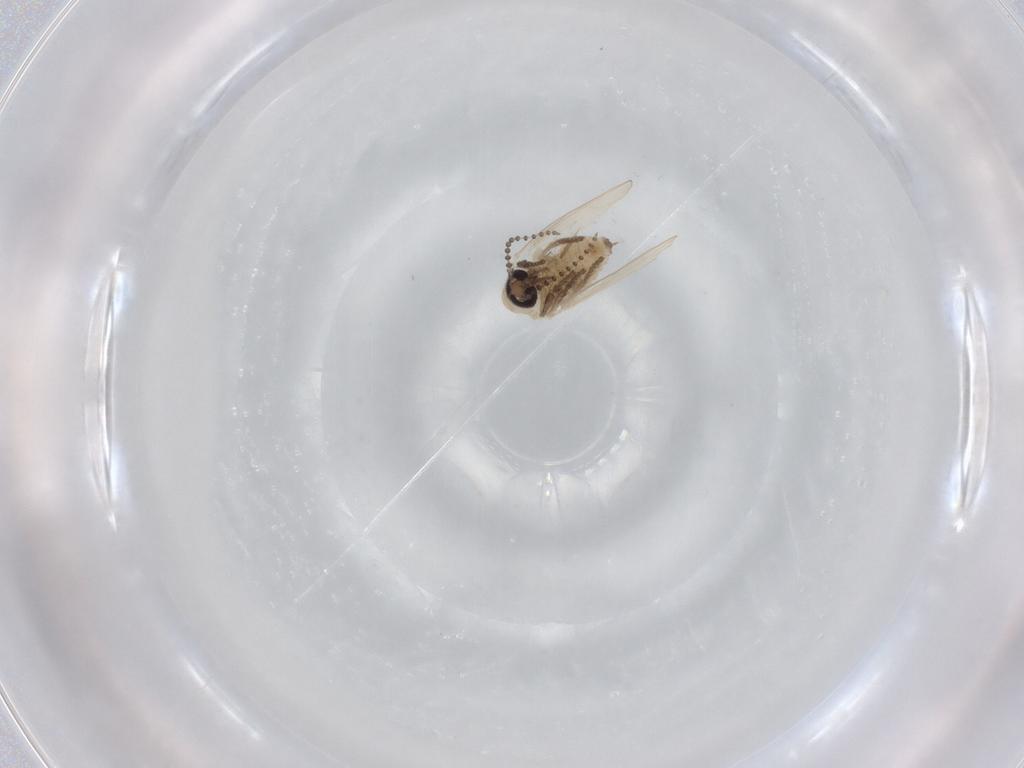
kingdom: Animalia
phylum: Arthropoda
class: Insecta
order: Diptera
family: Psychodidae
